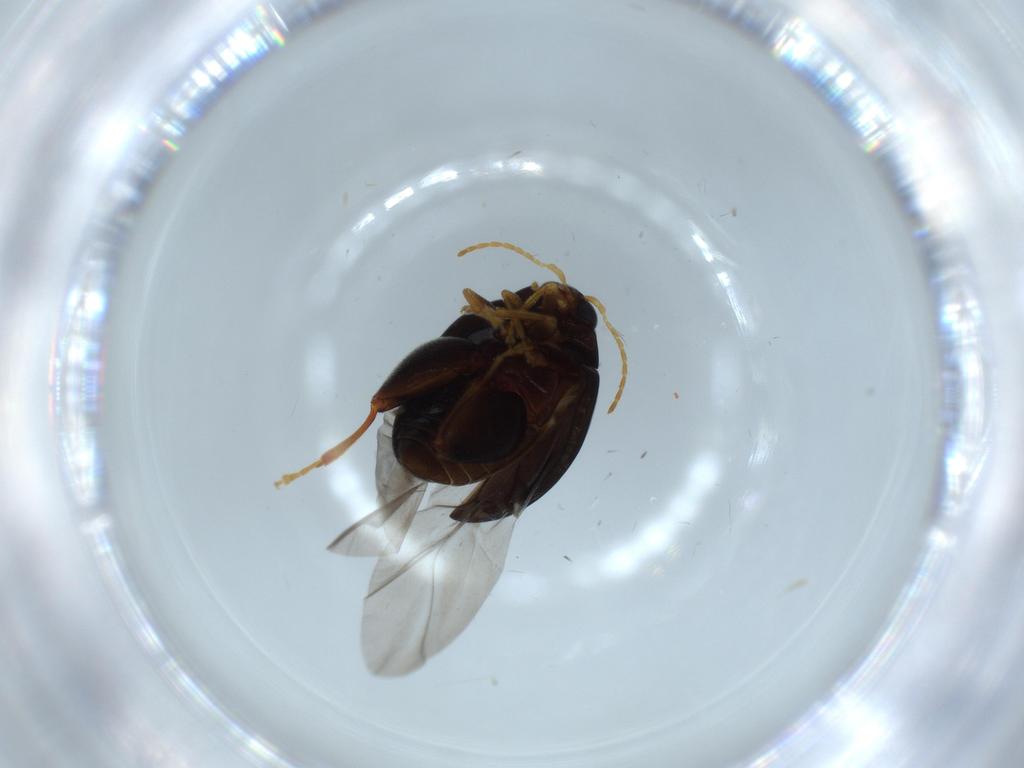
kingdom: Animalia
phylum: Arthropoda
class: Insecta
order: Coleoptera
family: Chrysomelidae
